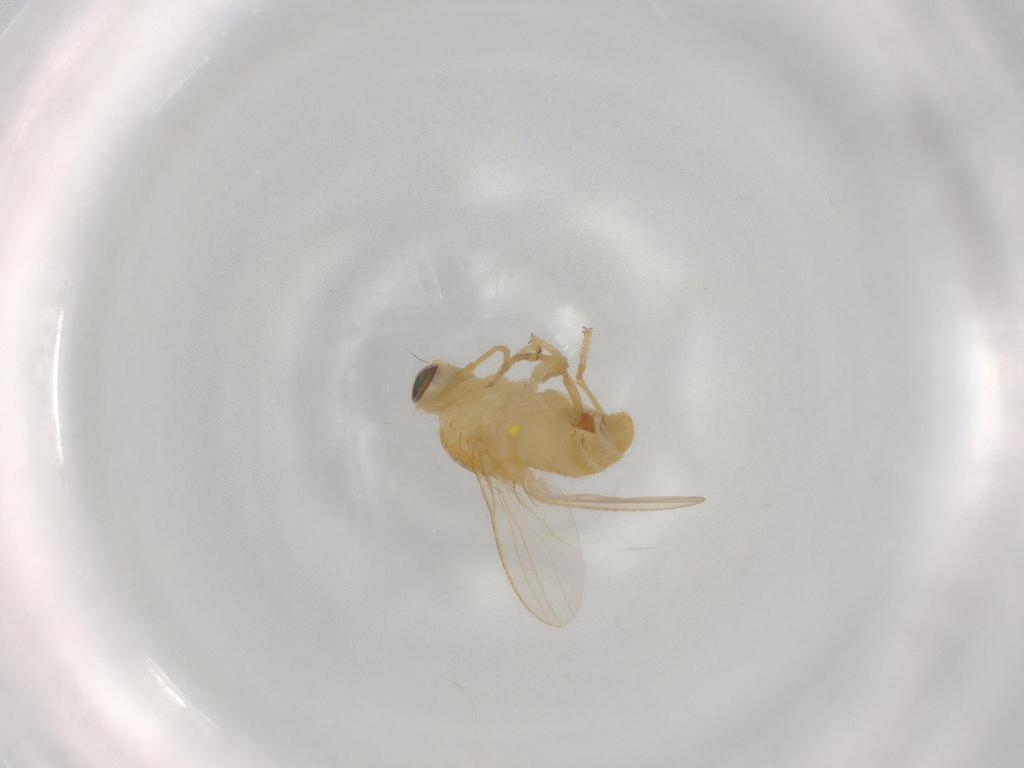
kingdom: Animalia
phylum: Arthropoda
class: Insecta
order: Diptera
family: Chyromyidae
